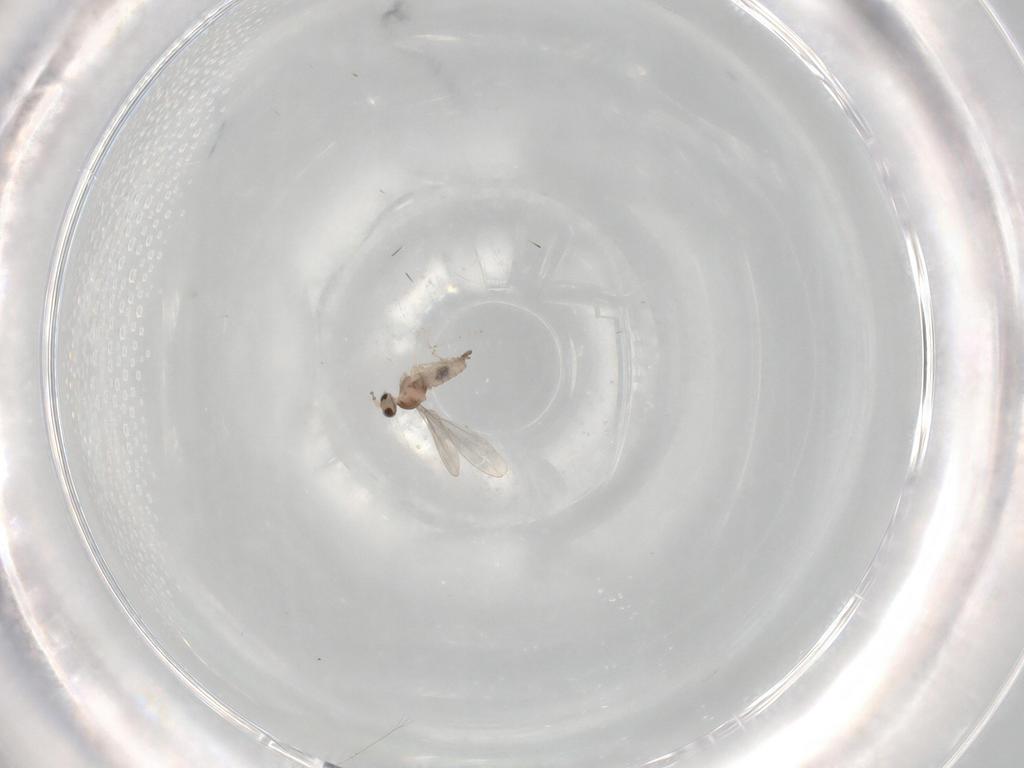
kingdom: Animalia
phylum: Arthropoda
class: Insecta
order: Diptera
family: Cecidomyiidae
